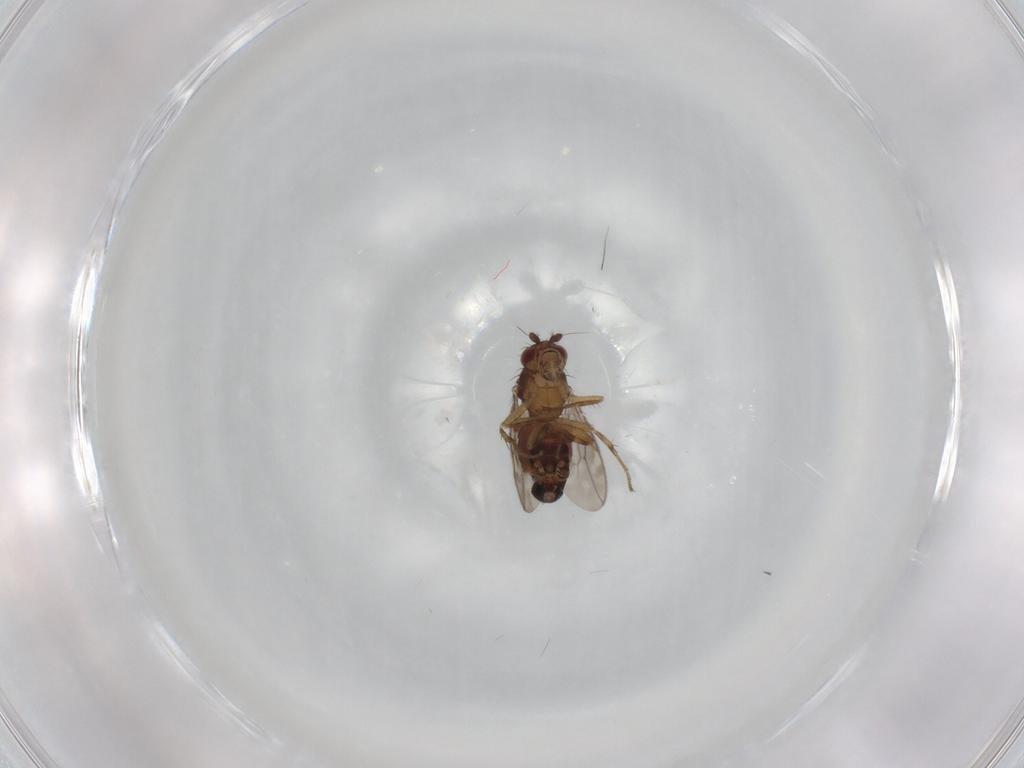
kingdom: Animalia
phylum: Arthropoda
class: Insecta
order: Diptera
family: Sphaeroceridae
